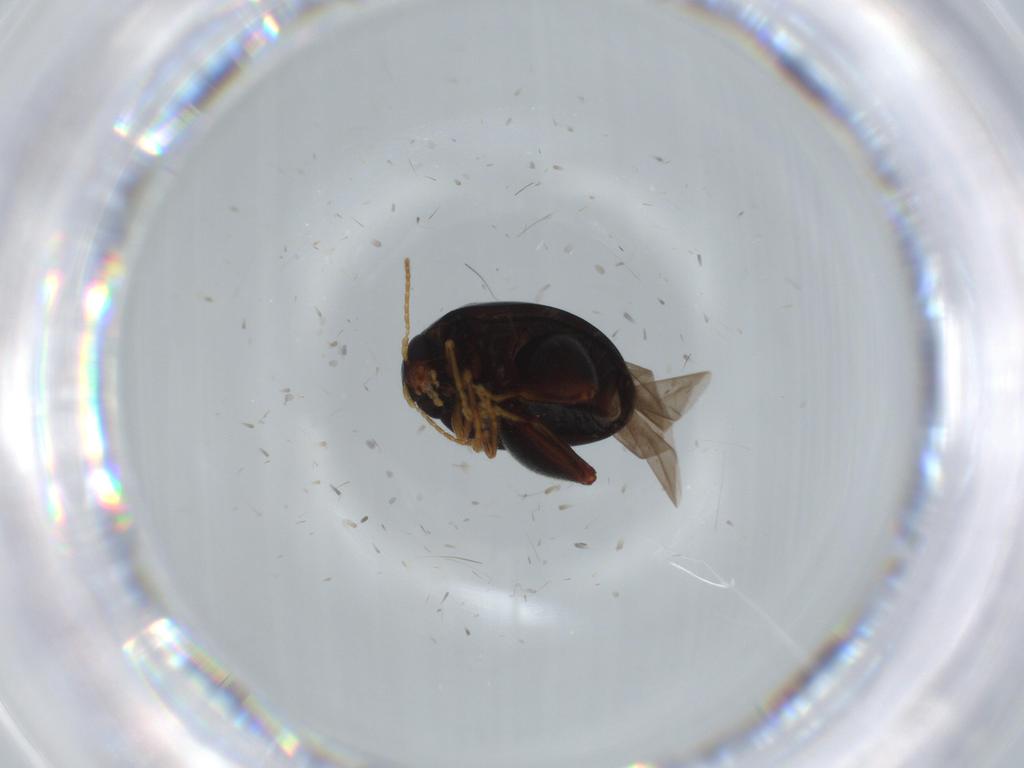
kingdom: Animalia
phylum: Arthropoda
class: Insecta
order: Coleoptera
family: Chrysomelidae
